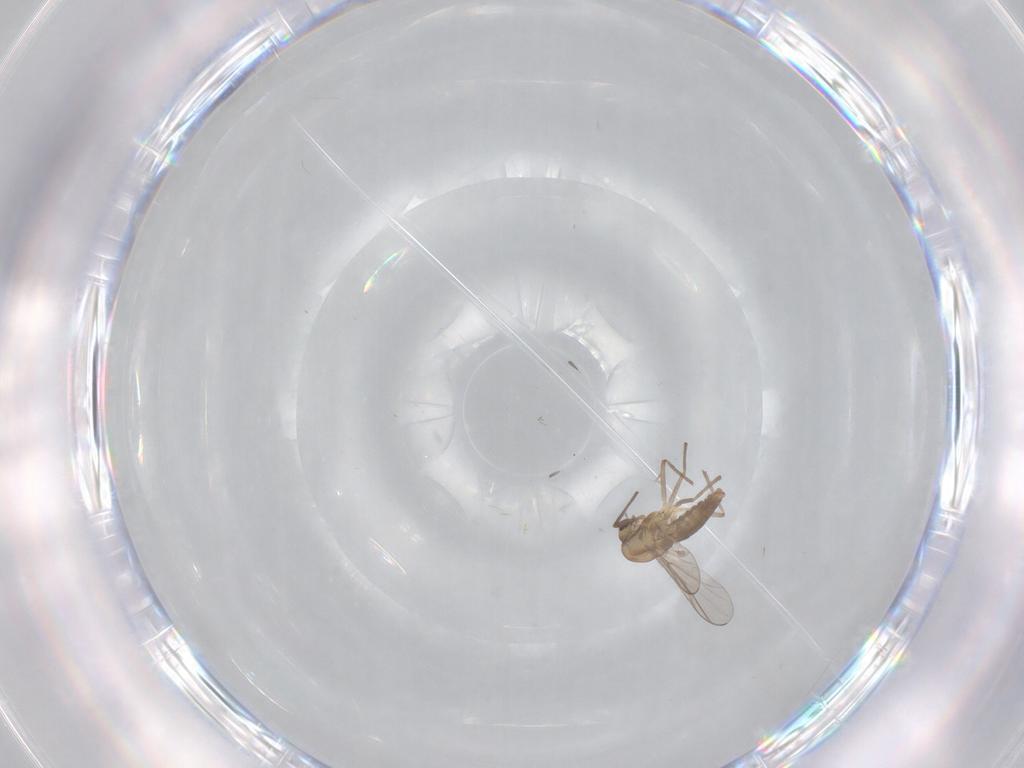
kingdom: Animalia
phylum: Arthropoda
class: Insecta
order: Diptera
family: Chironomidae
